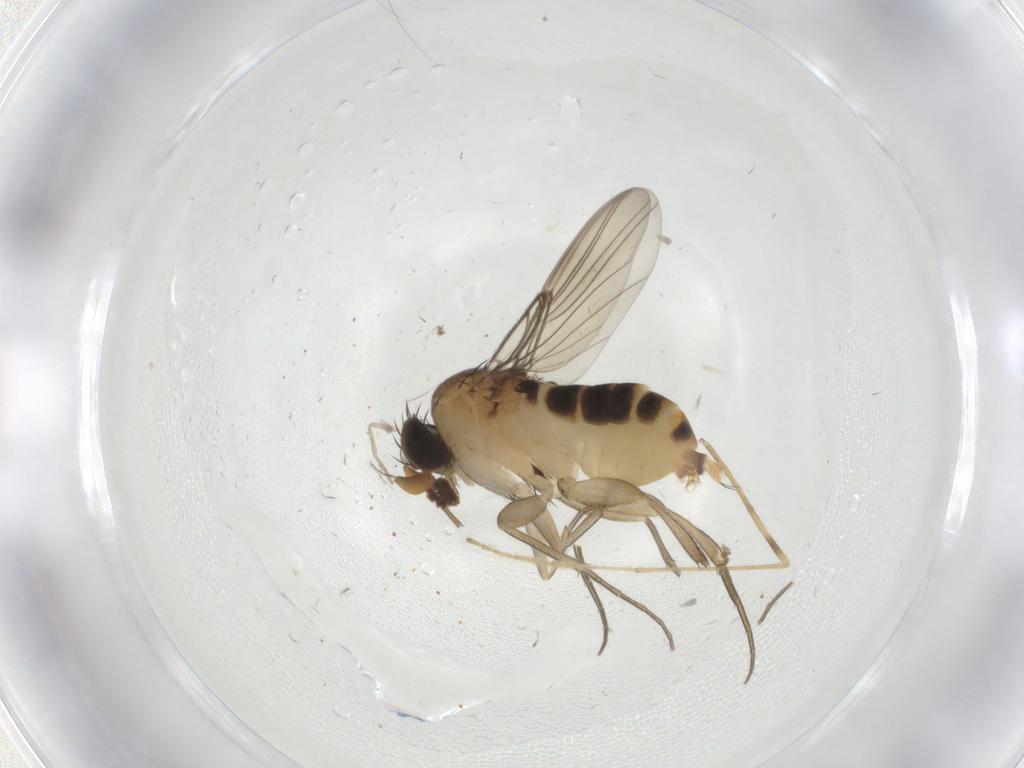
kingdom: Animalia
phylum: Arthropoda
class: Insecta
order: Diptera
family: Phoridae
